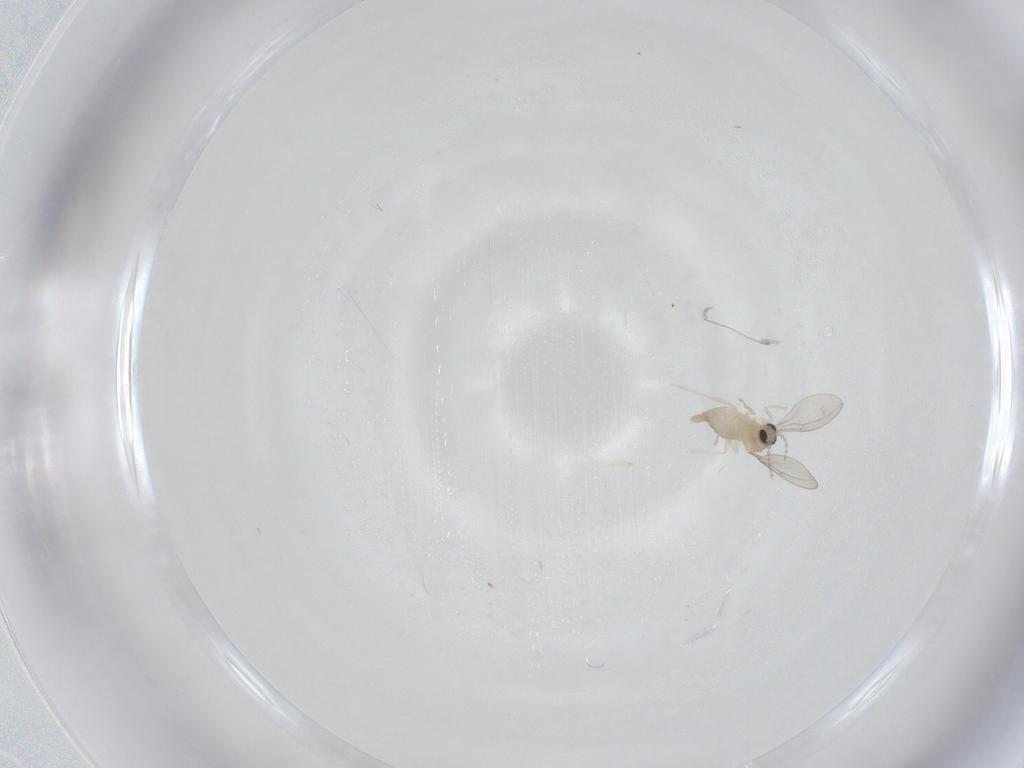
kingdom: Animalia
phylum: Arthropoda
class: Insecta
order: Diptera
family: Cecidomyiidae
